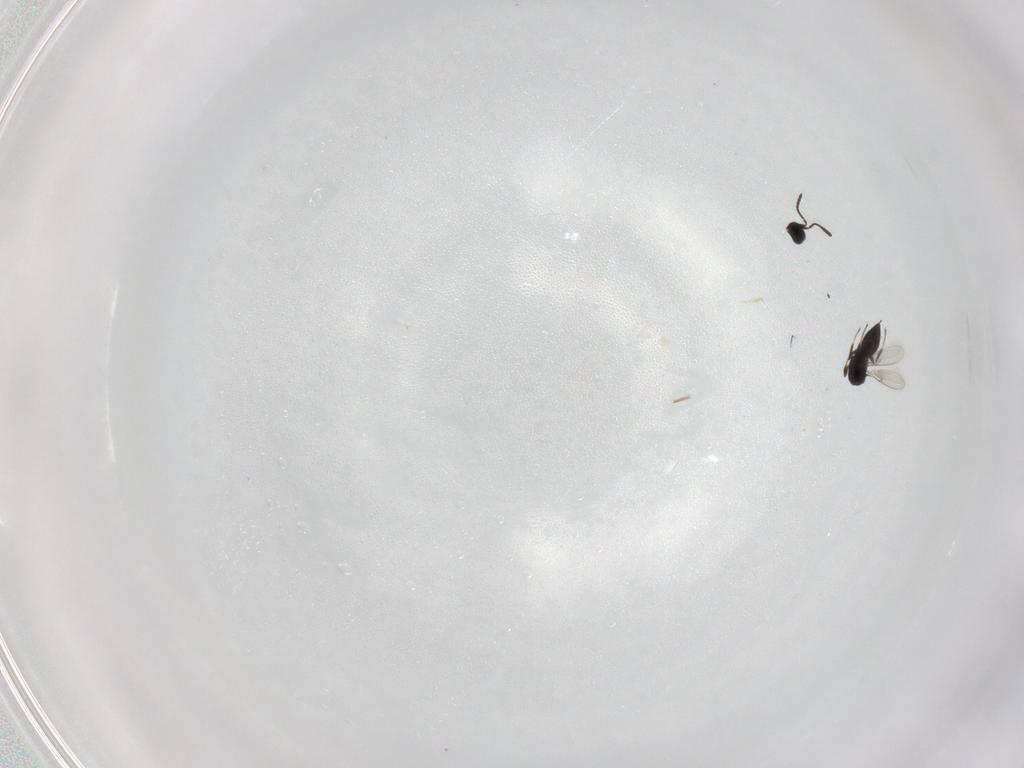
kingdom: Animalia
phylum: Arthropoda
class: Insecta
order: Hymenoptera
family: Scelionidae
